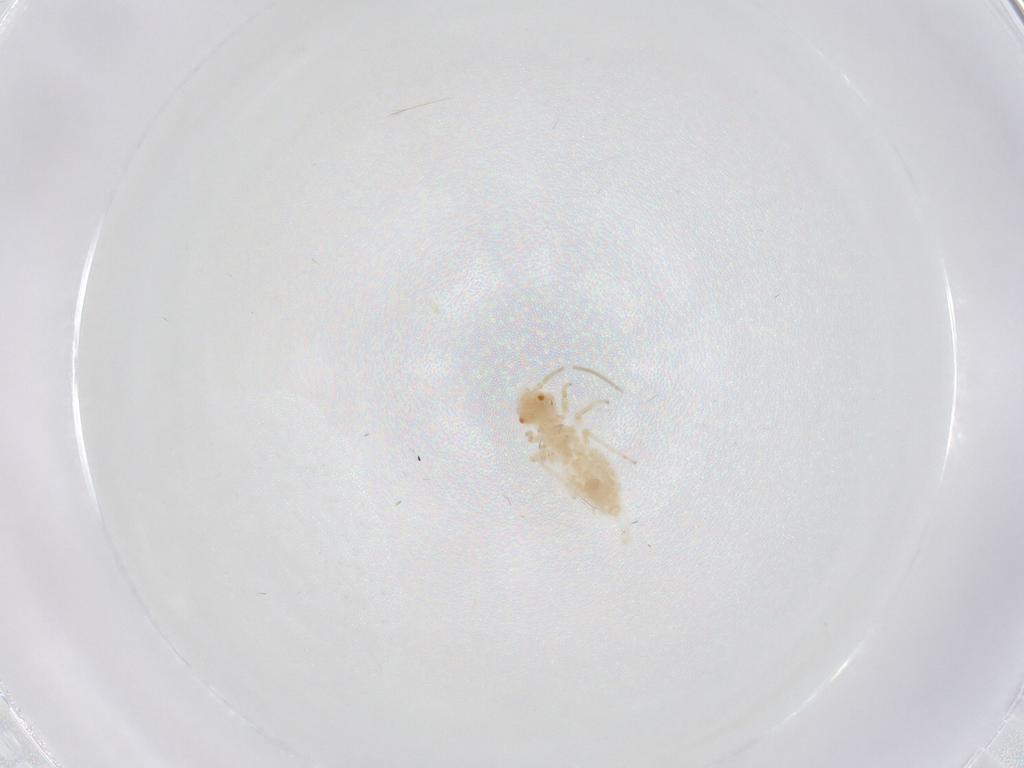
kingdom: Animalia
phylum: Arthropoda
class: Insecta
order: Psocodea
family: Caeciliusidae
